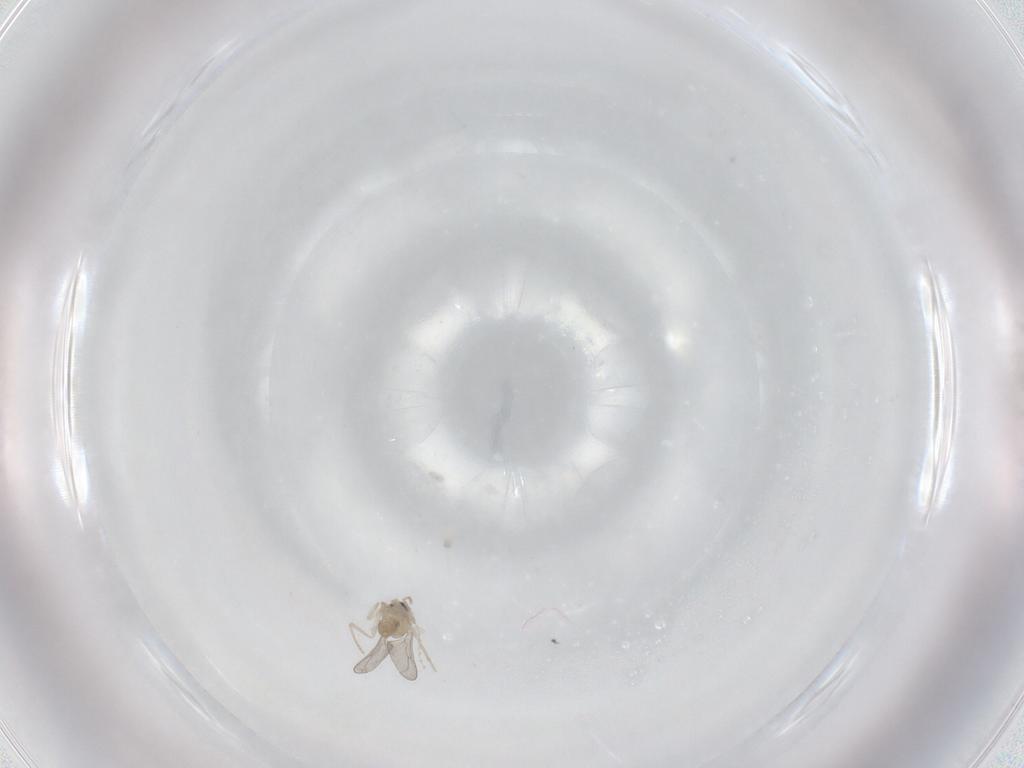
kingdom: Animalia
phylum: Arthropoda
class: Insecta
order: Diptera
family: Cecidomyiidae
